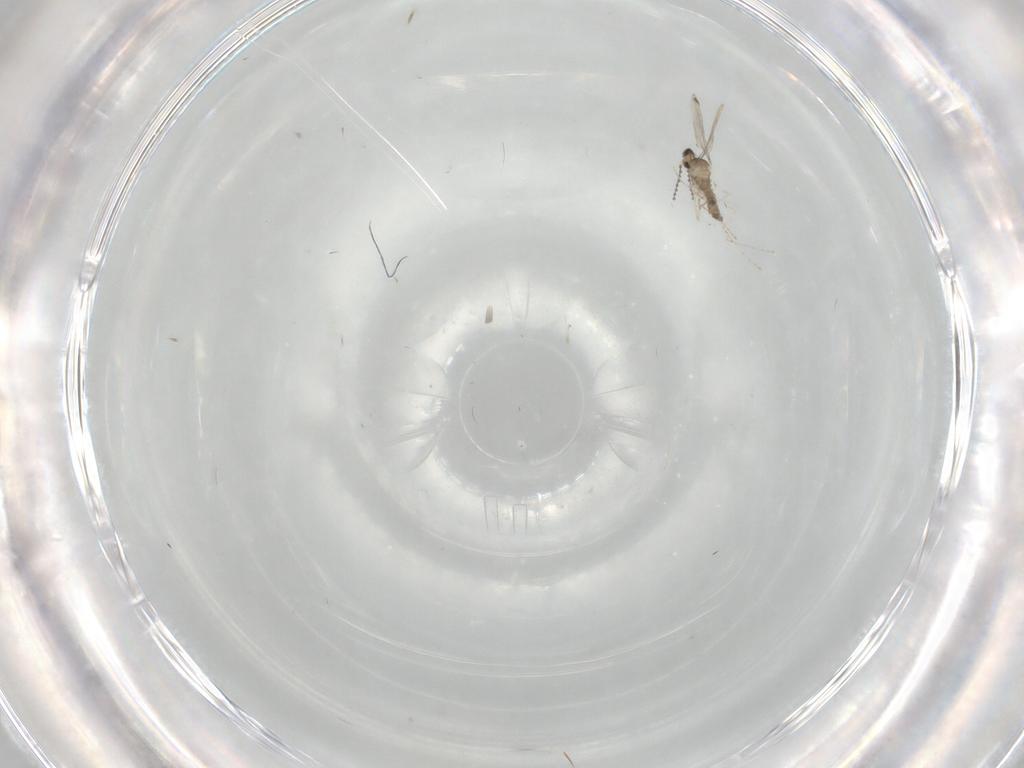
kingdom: Animalia
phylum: Arthropoda
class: Insecta
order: Diptera
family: Cecidomyiidae
